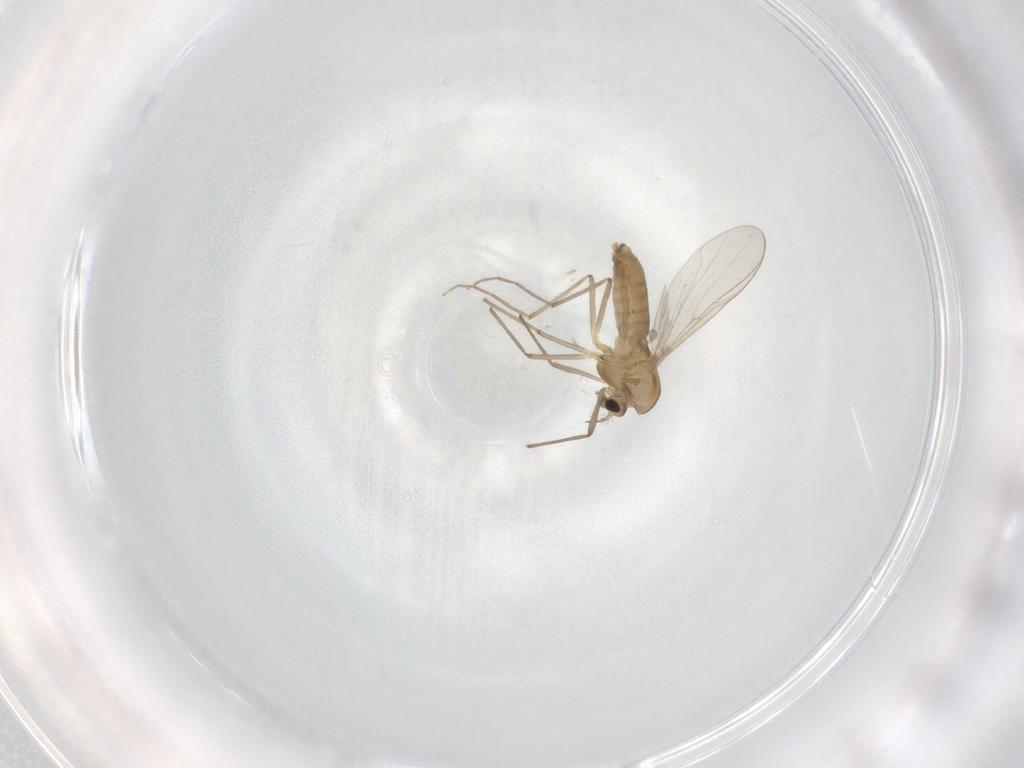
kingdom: Animalia
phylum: Arthropoda
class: Insecta
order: Diptera
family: Chironomidae
